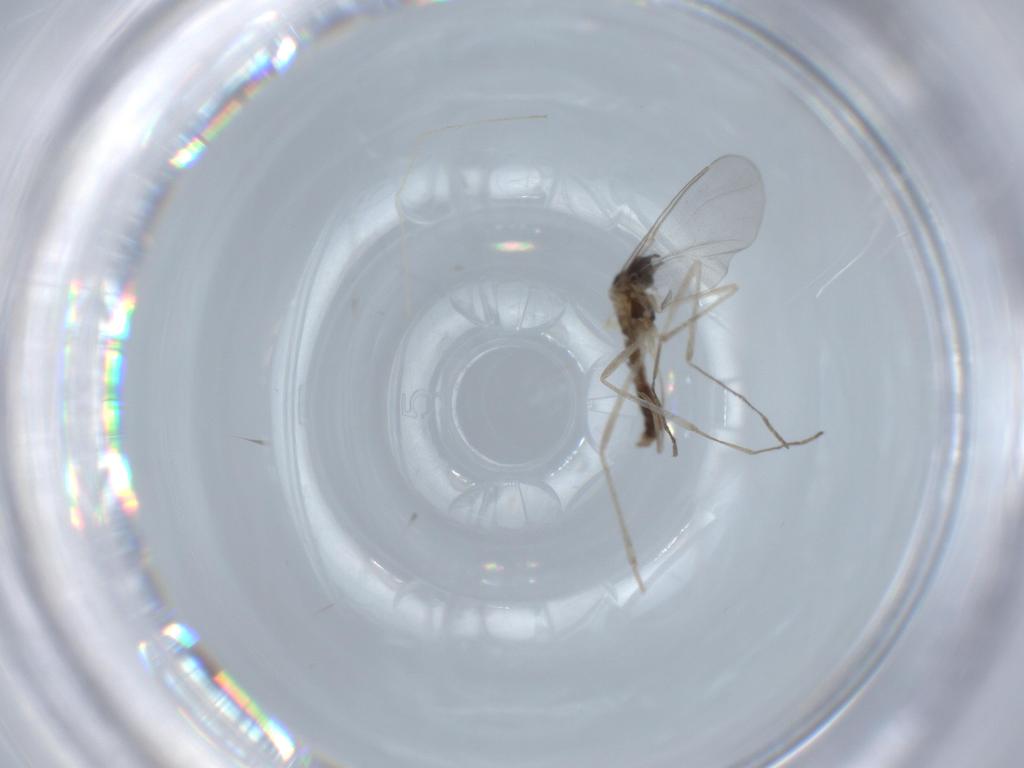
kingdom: Animalia
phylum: Arthropoda
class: Insecta
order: Diptera
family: Chironomidae
